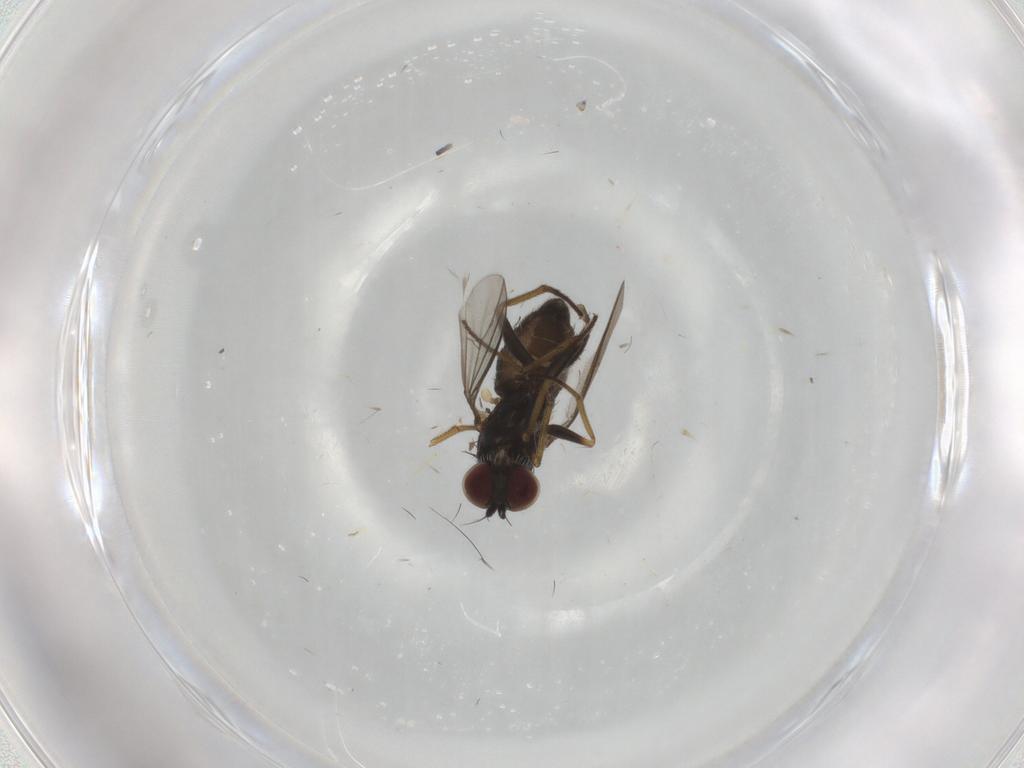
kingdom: Animalia
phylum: Arthropoda
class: Insecta
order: Diptera
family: Dolichopodidae
